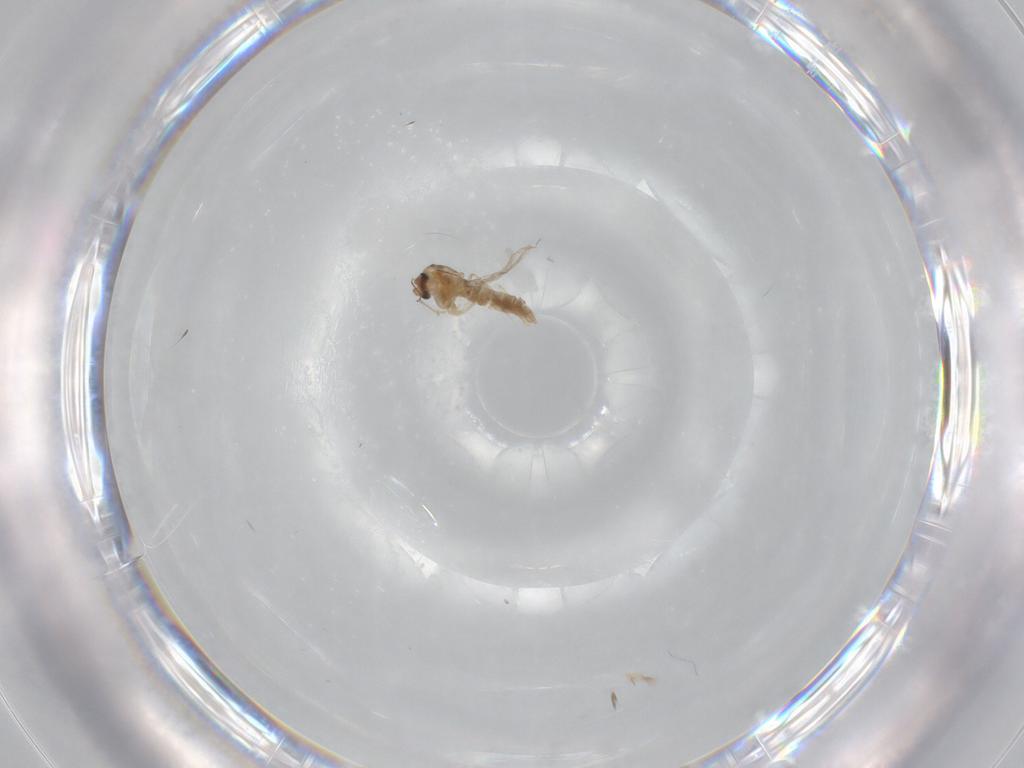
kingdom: Animalia
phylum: Arthropoda
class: Insecta
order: Diptera
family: Chironomidae
